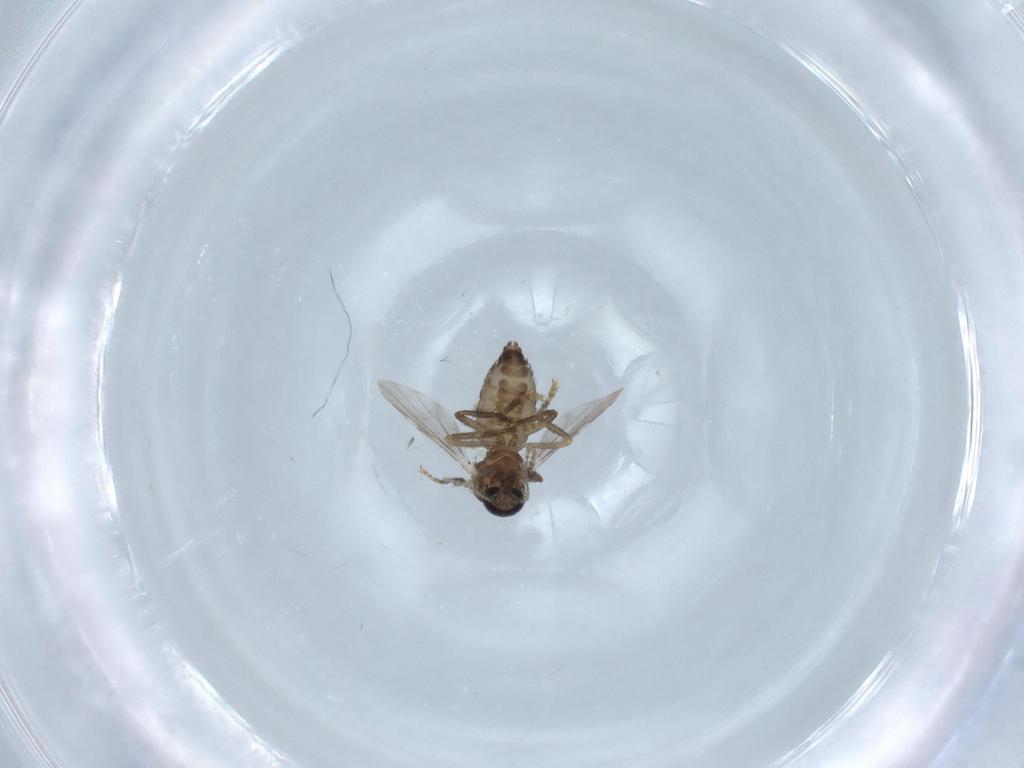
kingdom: Animalia
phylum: Arthropoda
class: Insecta
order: Diptera
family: Ceratopogonidae
